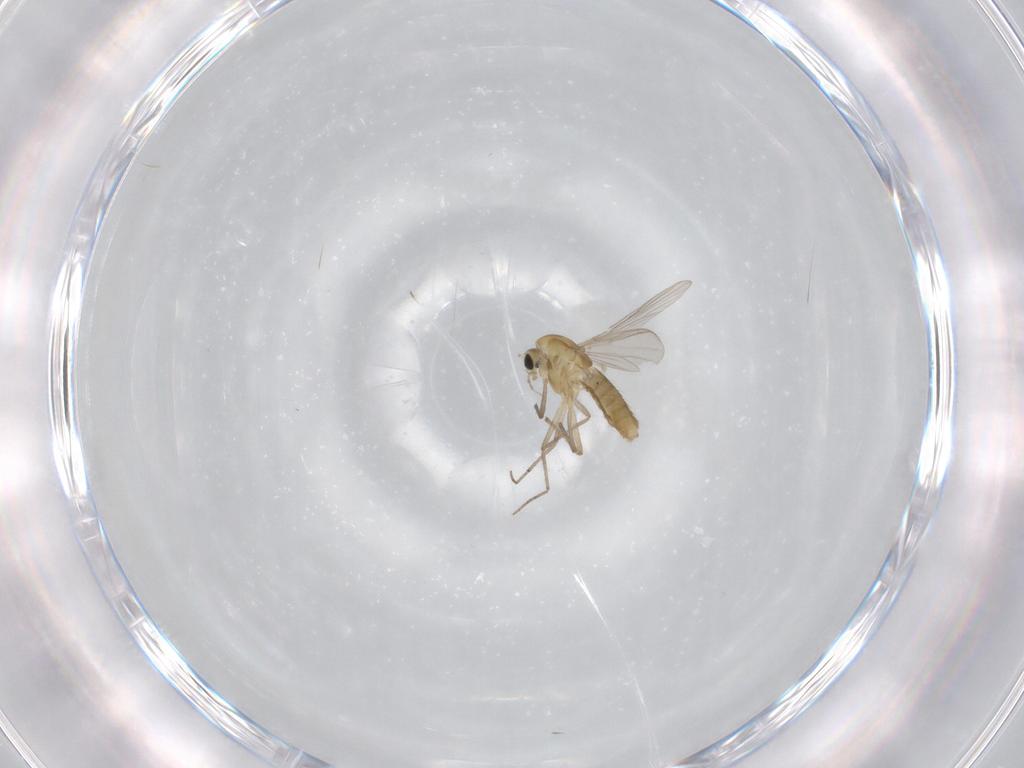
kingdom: Animalia
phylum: Arthropoda
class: Insecta
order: Diptera
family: Chironomidae
